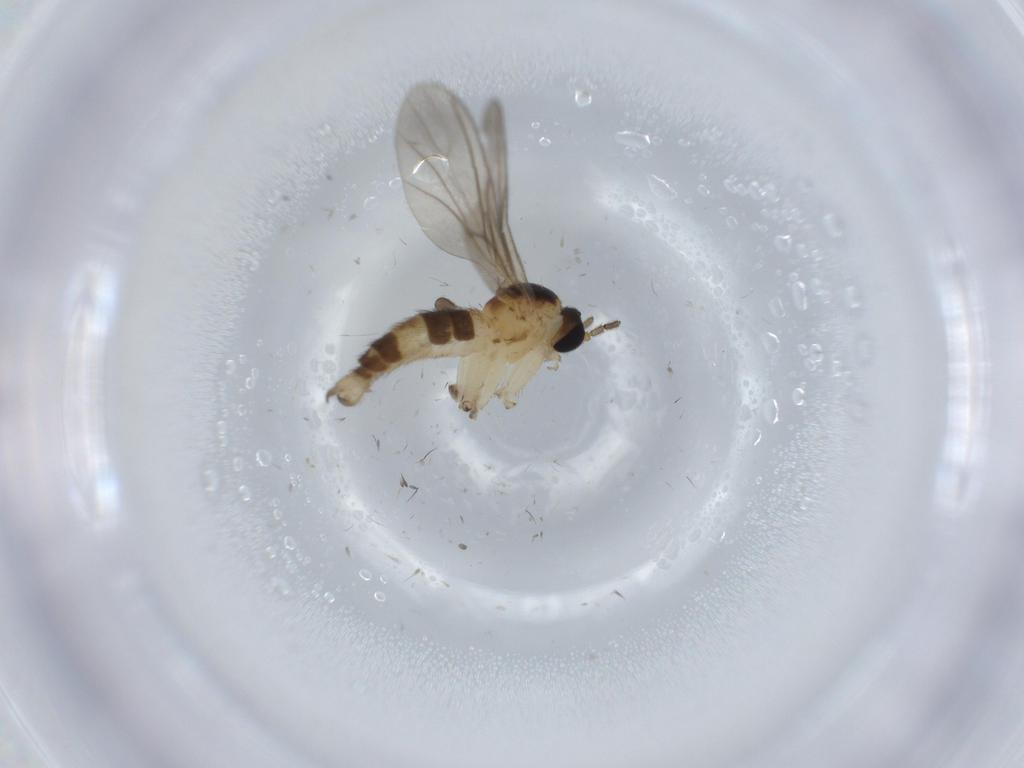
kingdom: Animalia
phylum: Arthropoda
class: Insecta
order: Diptera
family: Sciaridae
